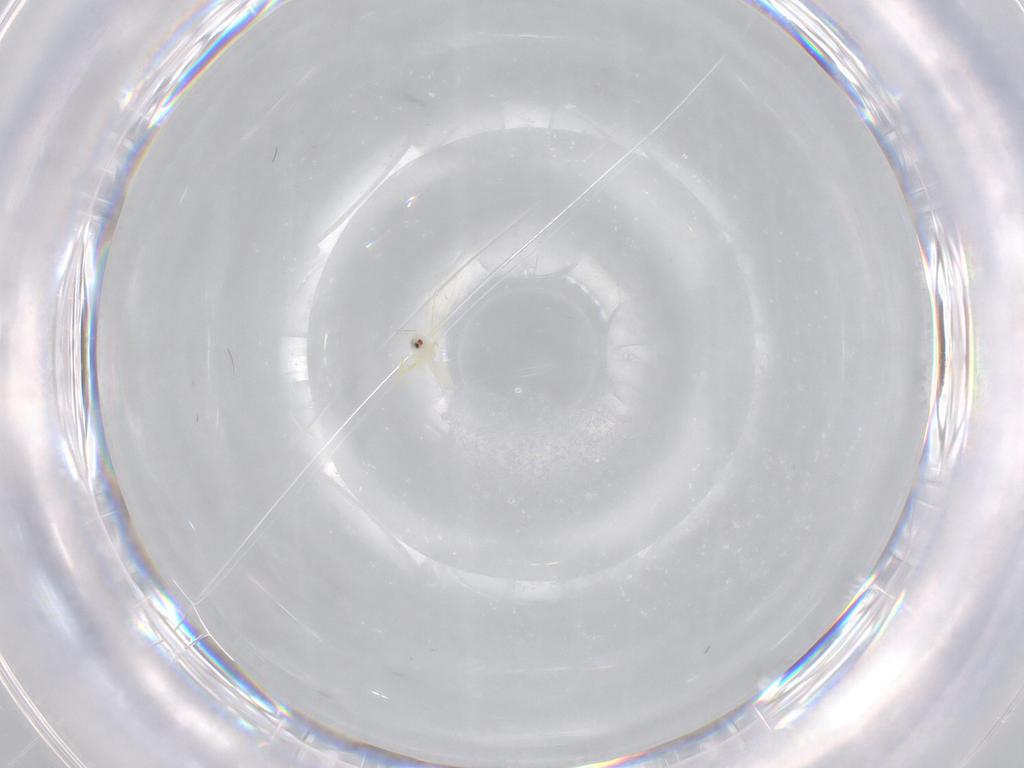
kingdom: Animalia
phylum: Arthropoda
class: Insecta
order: Hemiptera
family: Aleyrodidae
